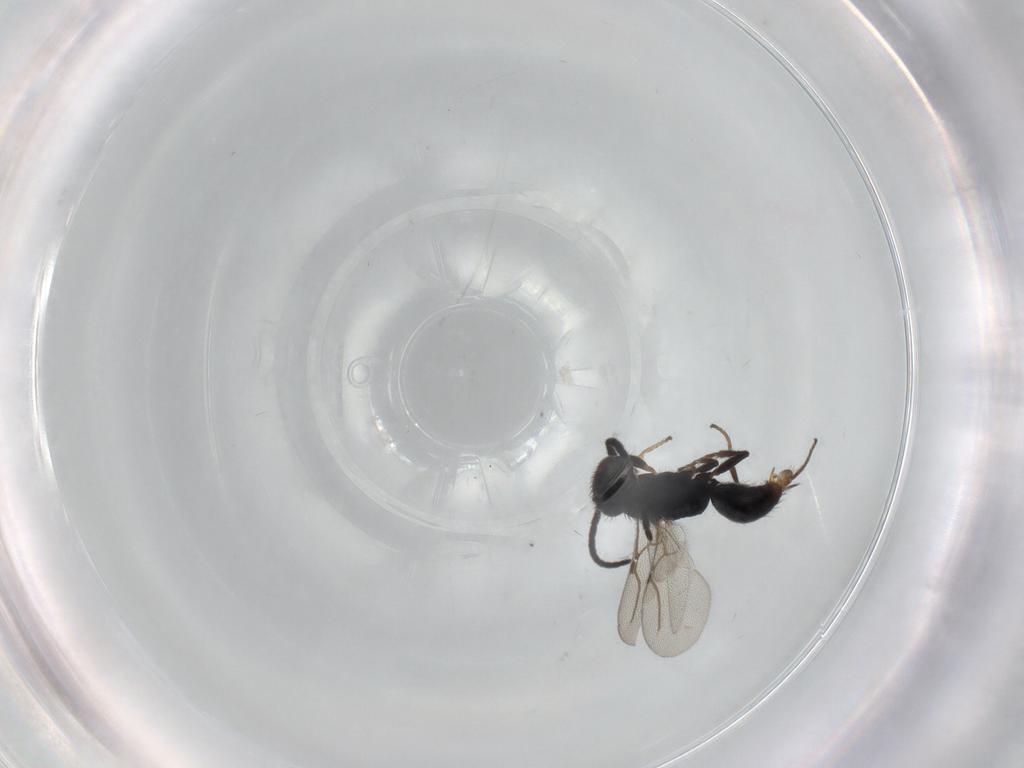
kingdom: Animalia
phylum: Arthropoda
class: Insecta
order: Hymenoptera
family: Bethylidae
